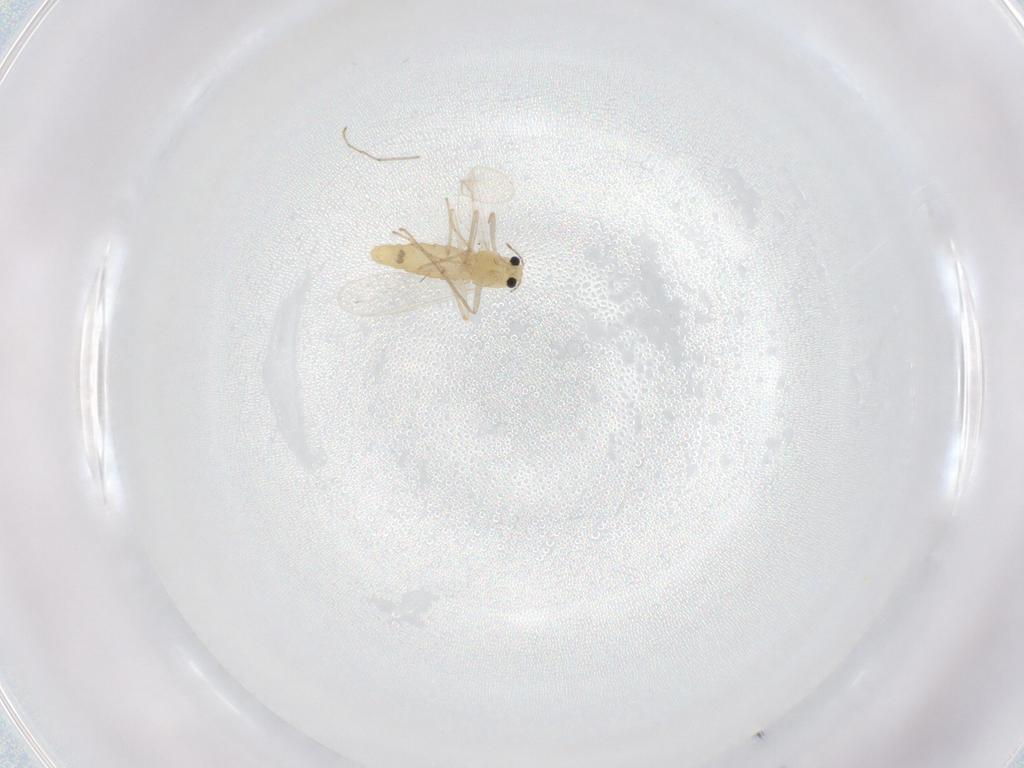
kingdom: Animalia
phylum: Arthropoda
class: Insecta
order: Diptera
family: Chironomidae
